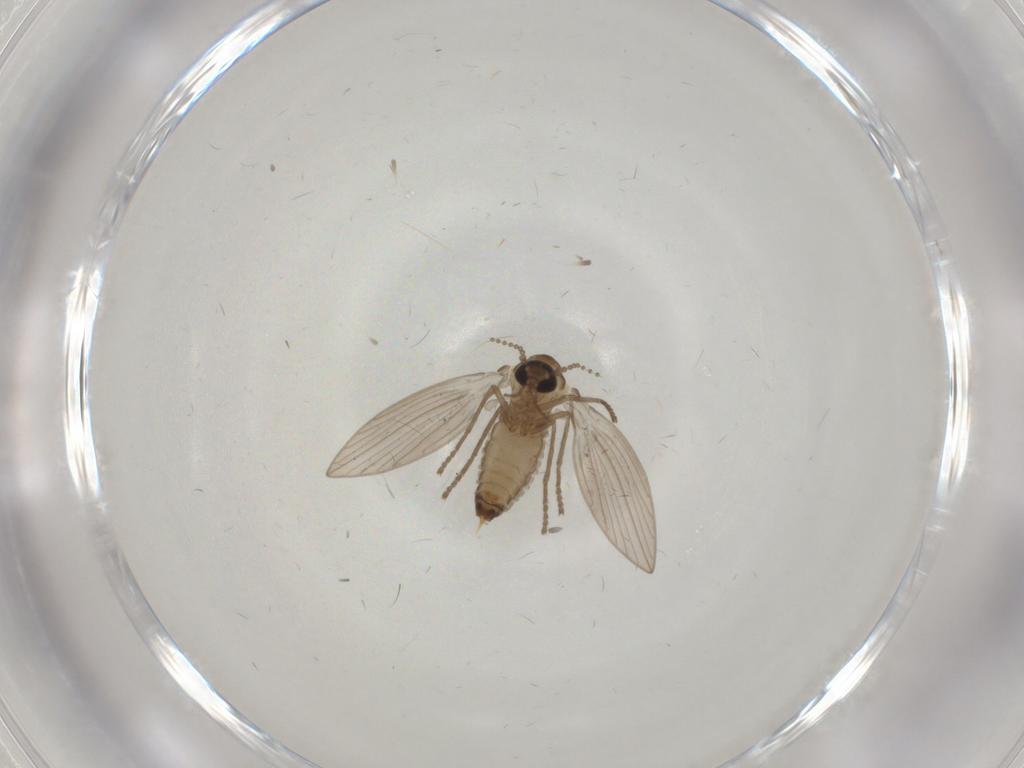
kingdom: Animalia
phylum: Arthropoda
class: Insecta
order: Diptera
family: Psychodidae
